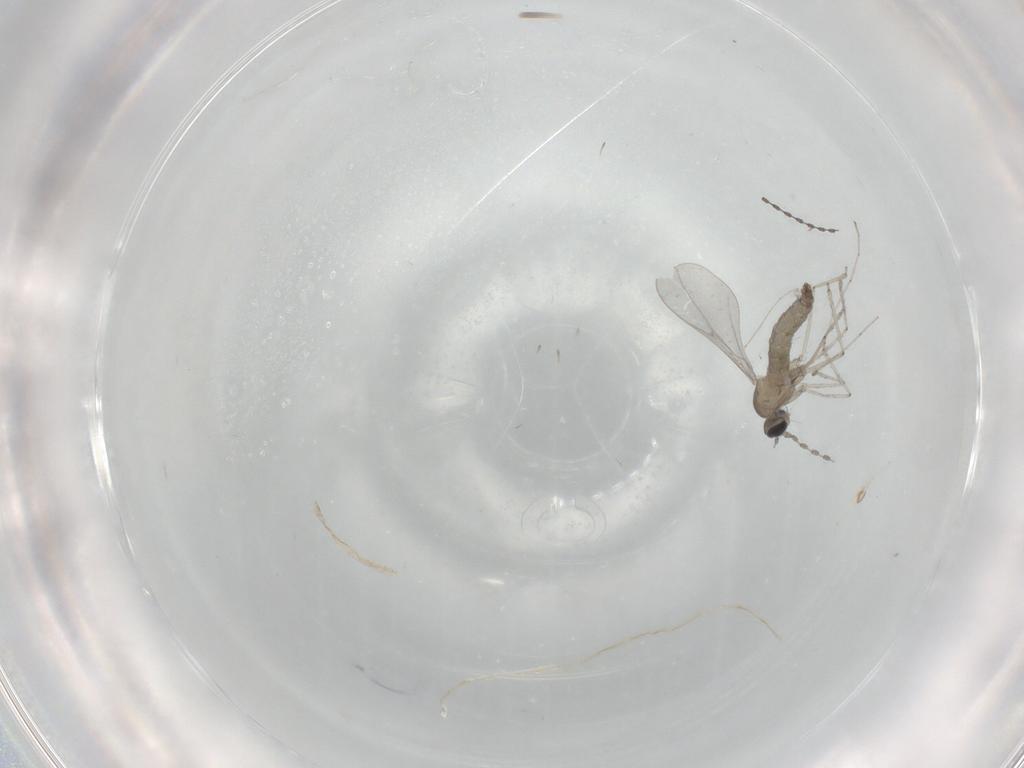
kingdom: Animalia
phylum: Arthropoda
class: Insecta
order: Diptera
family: Cecidomyiidae
